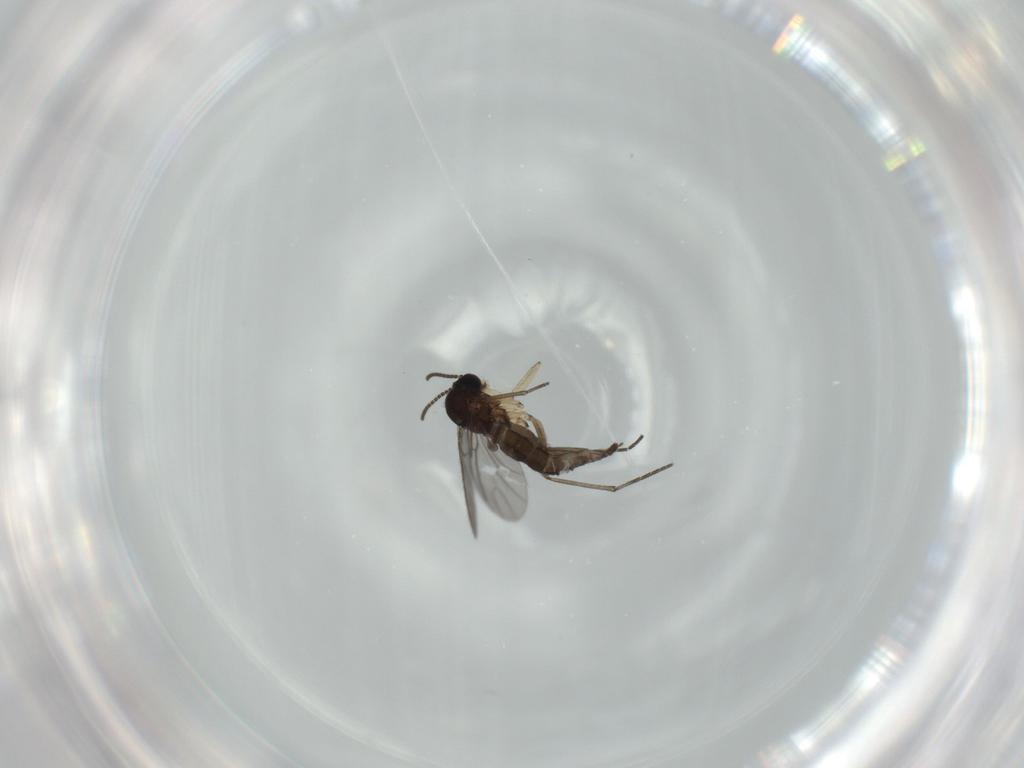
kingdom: Animalia
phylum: Arthropoda
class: Insecta
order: Diptera
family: Sciaridae
